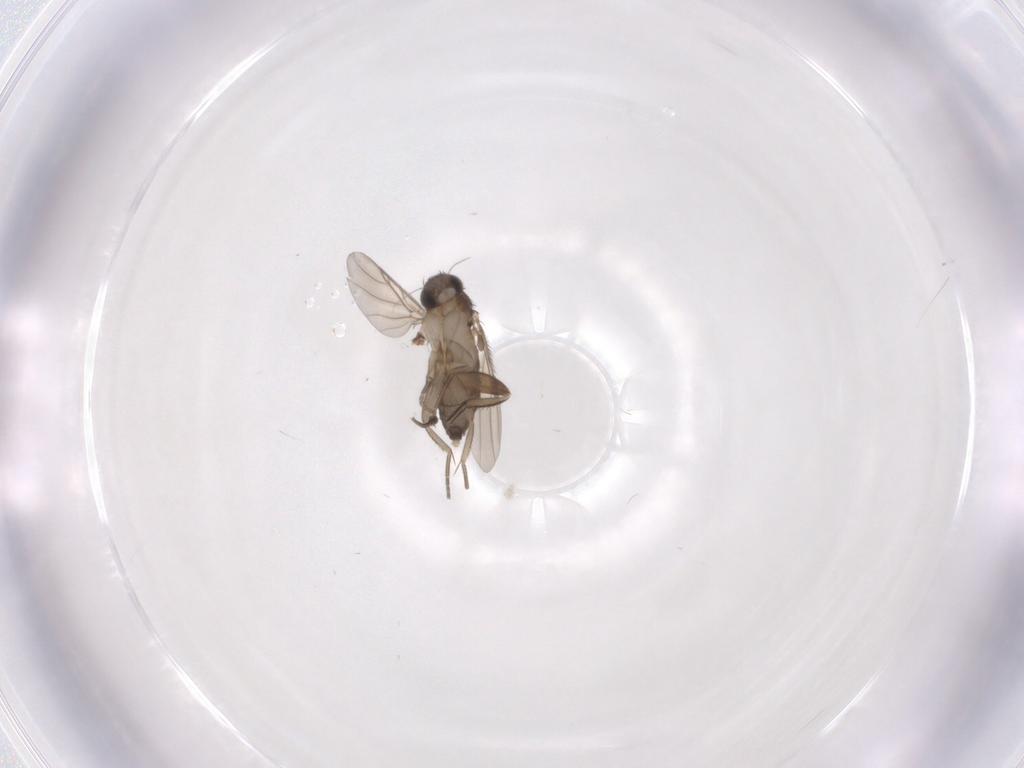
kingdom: Animalia
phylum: Arthropoda
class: Insecta
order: Diptera
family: Phoridae
